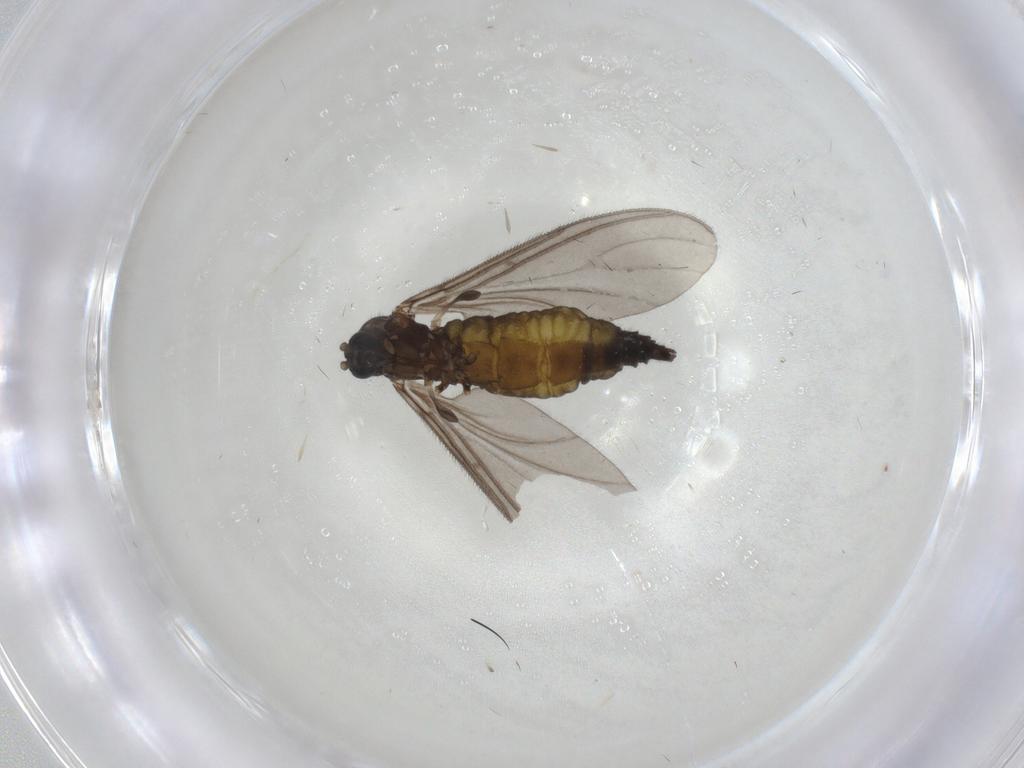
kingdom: Animalia
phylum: Arthropoda
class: Insecta
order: Diptera
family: Sciaridae
